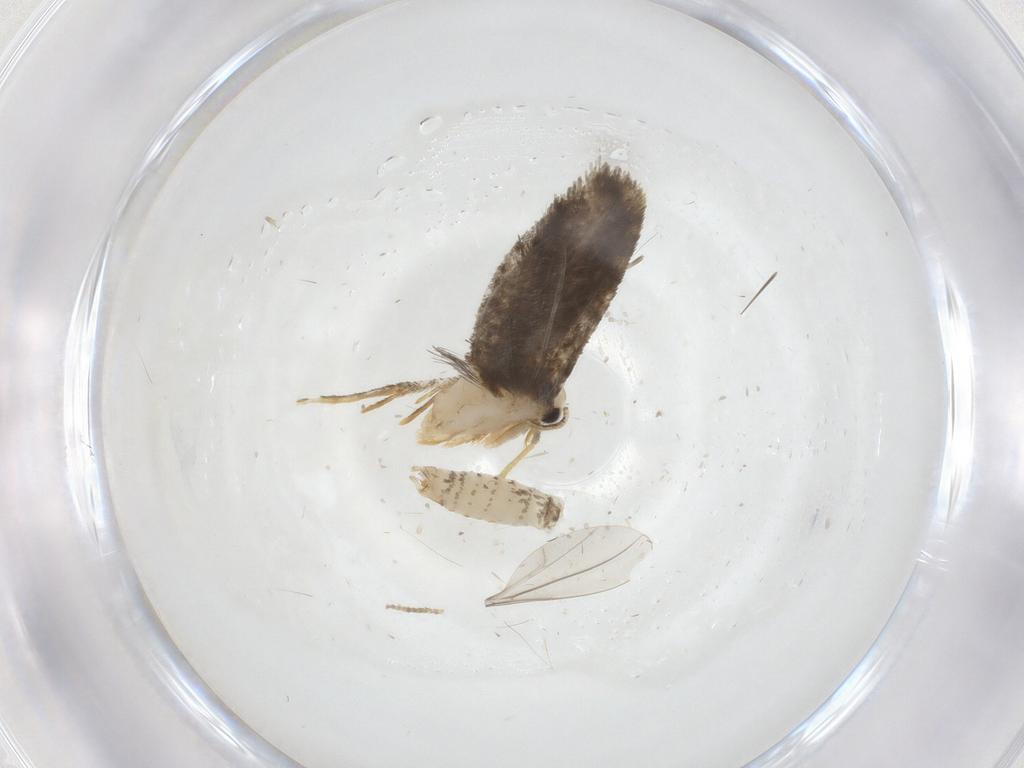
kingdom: Animalia
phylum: Arthropoda
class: Insecta
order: Lepidoptera
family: Psychidae
